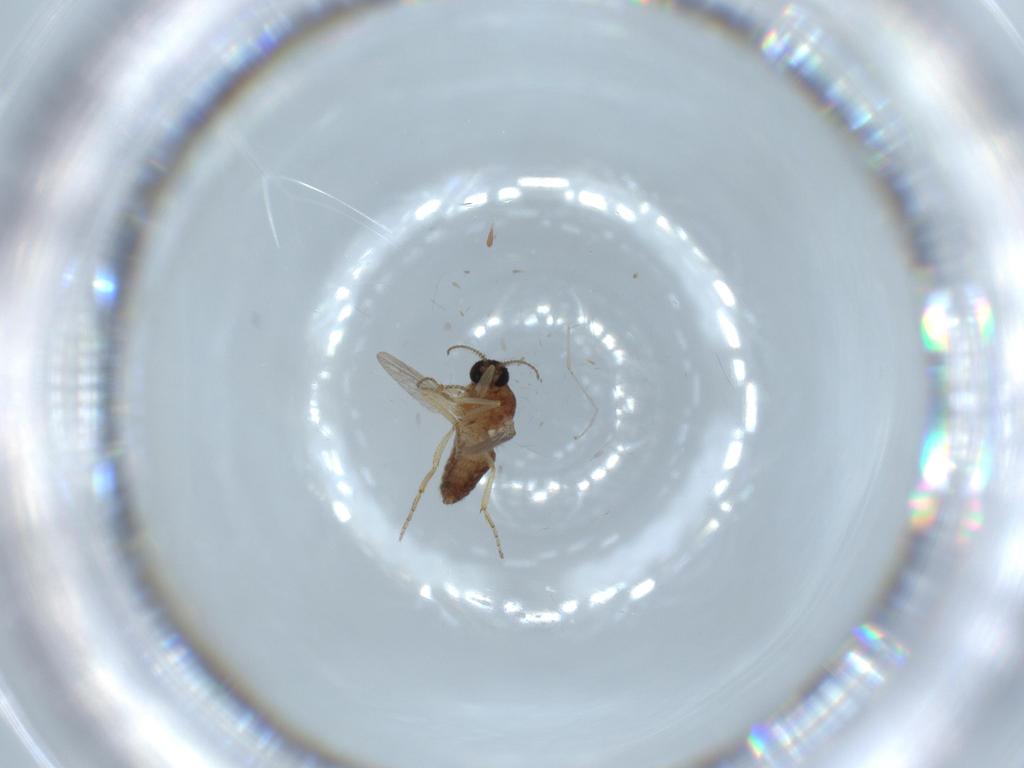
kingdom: Animalia
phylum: Arthropoda
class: Insecta
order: Diptera
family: Ceratopogonidae
